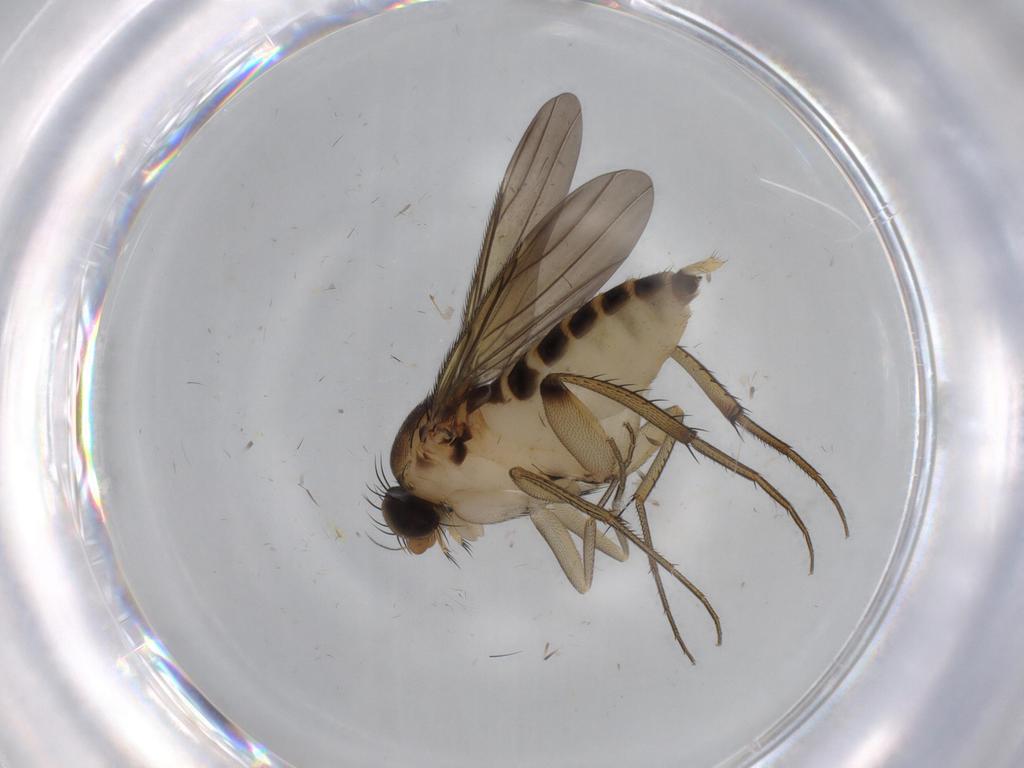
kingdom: Animalia
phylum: Arthropoda
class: Insecta
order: Diptera
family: Phoridae
